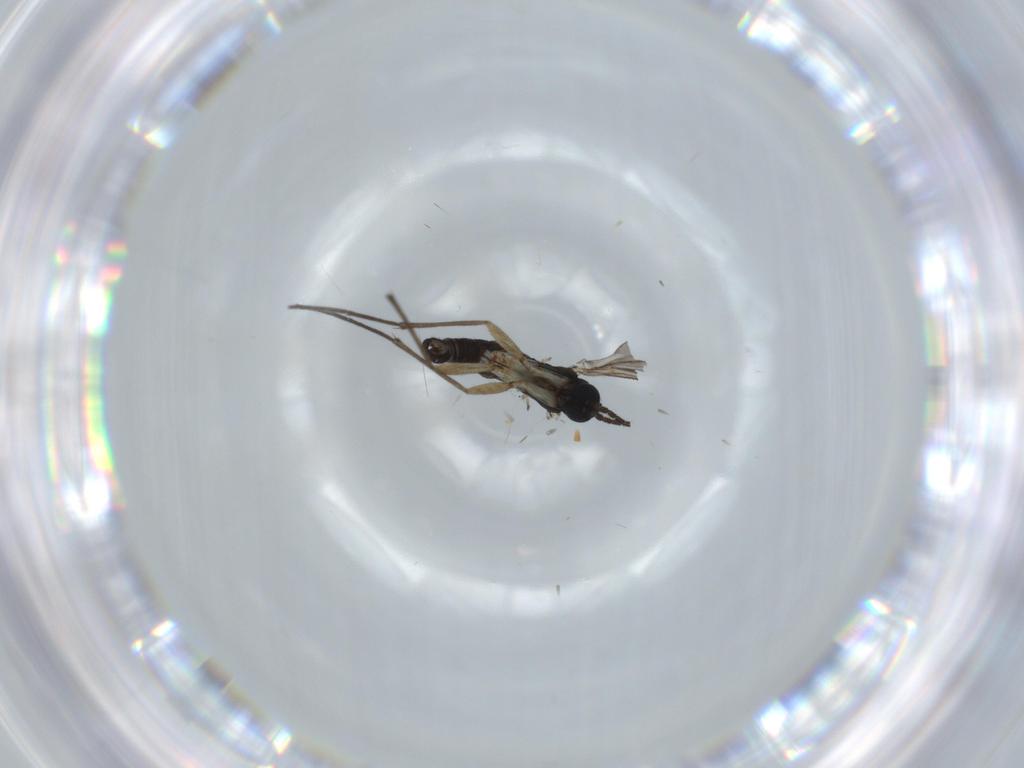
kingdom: Animalia
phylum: Arthropoda
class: Insecta
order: Diptera
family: Sciaridae
